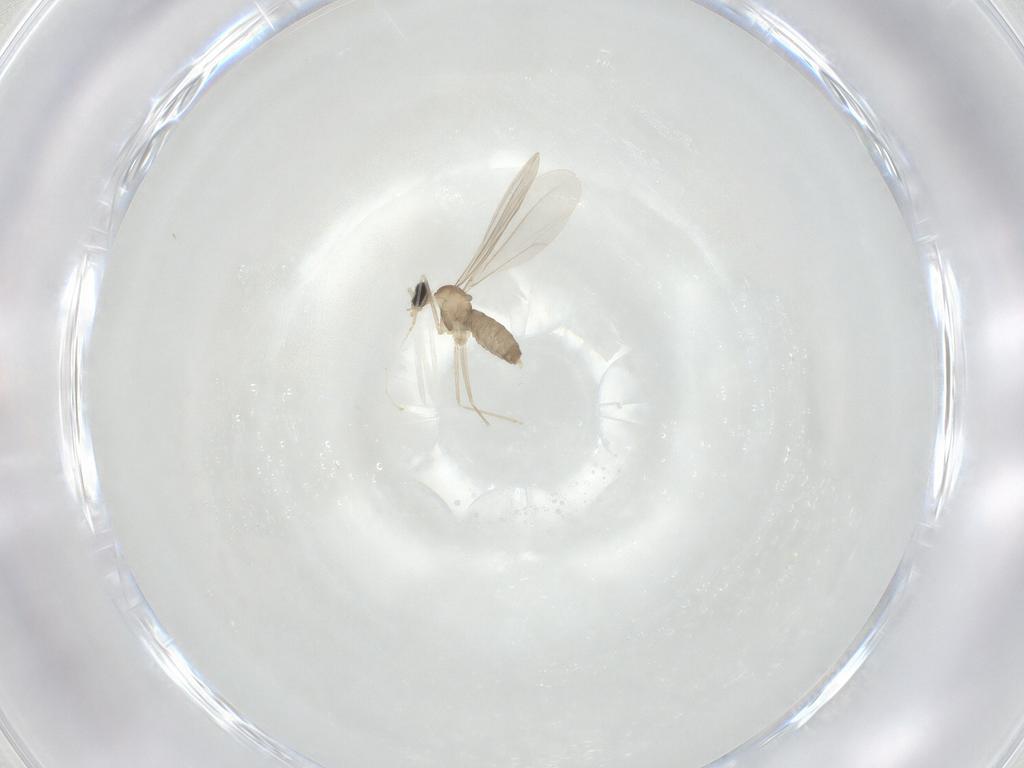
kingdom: Animalia
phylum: Arthropoda
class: Insecta
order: Diptera
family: Cecidomyiidae
